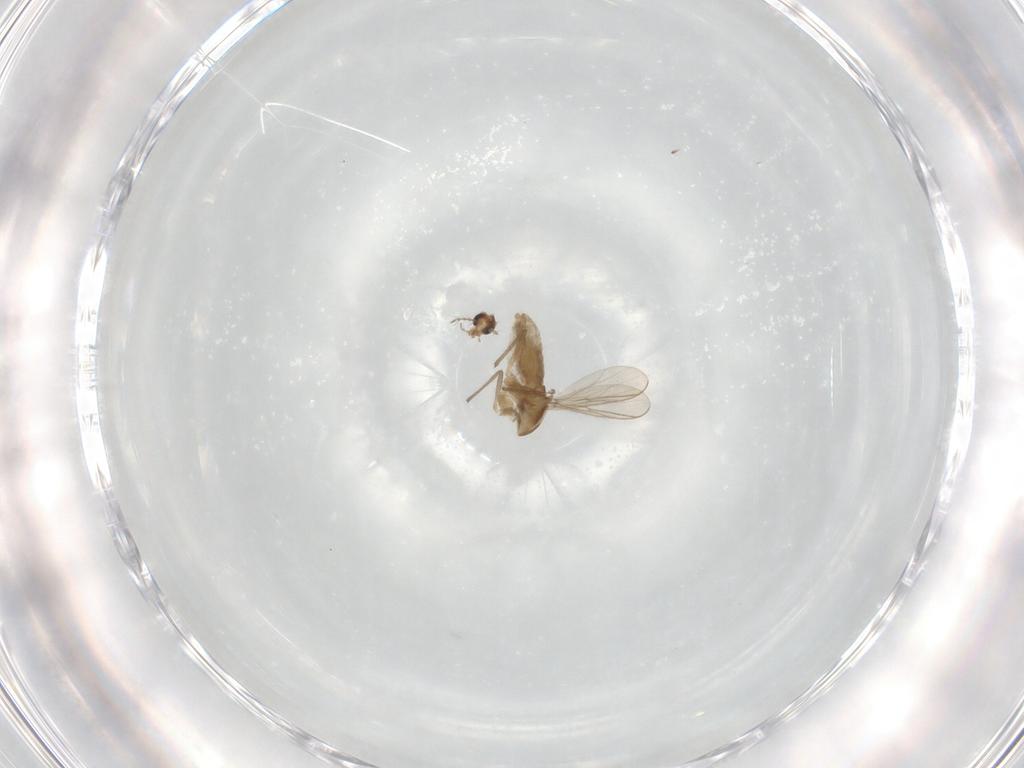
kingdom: Animalia
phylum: Arthropoda
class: Insecta
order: Diptera
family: Chironomidae
